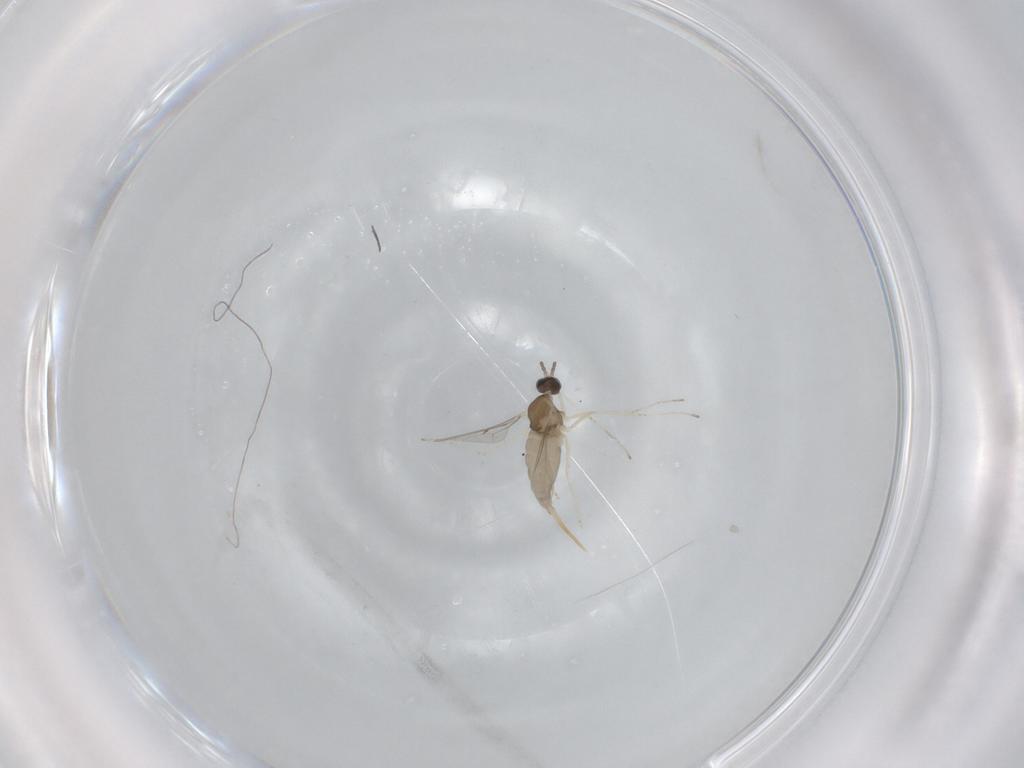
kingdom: Animalia
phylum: Arthropoda
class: Insecta
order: Diptera
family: Cecidomyiidae
